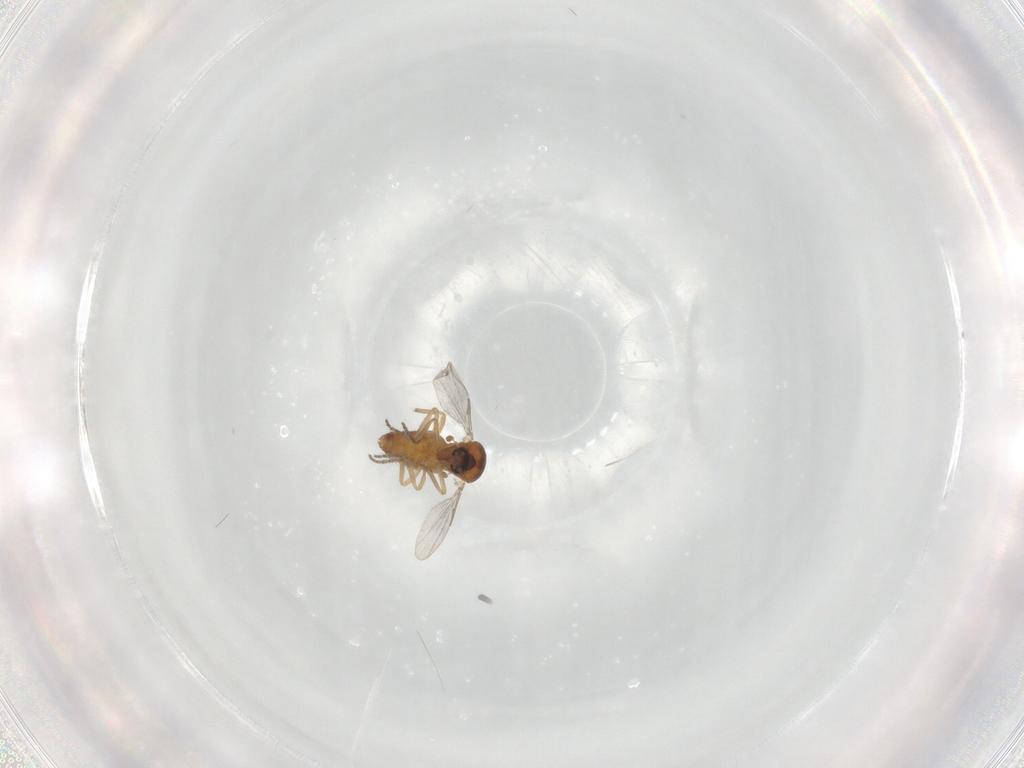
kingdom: Animalia
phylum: Arthropoda
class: Insecta
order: Diptera
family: Ceratopogonidae
